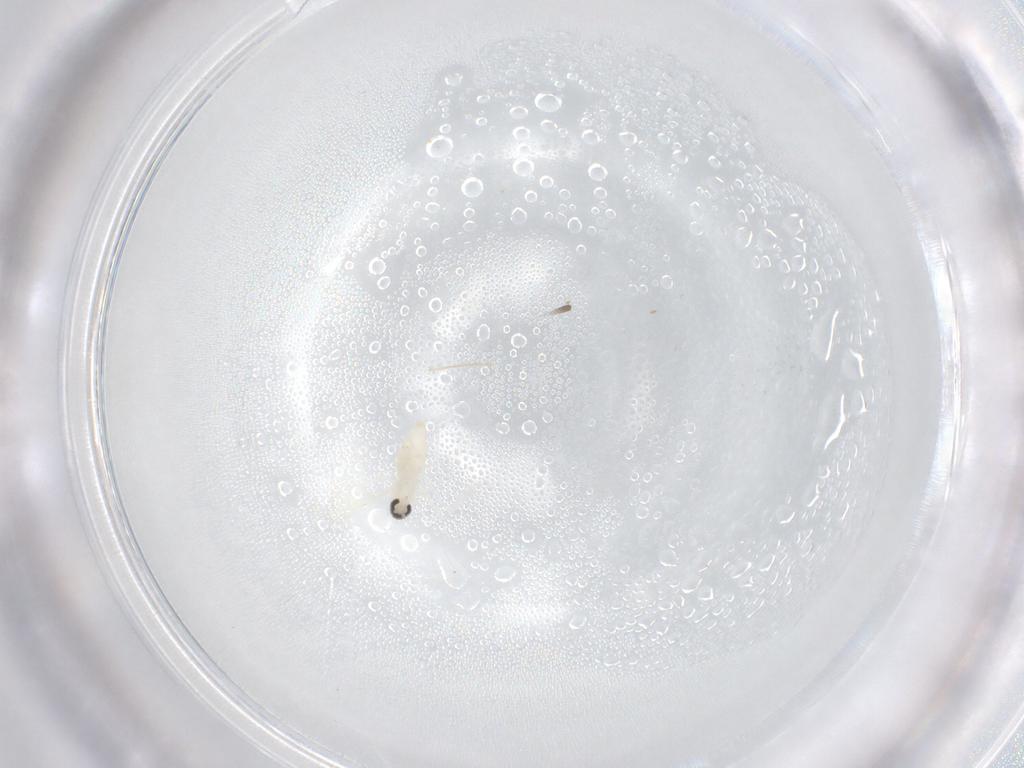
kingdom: Animalia
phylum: Arthropoda
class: Insecta
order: Diptera
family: Cecidomyiidae
